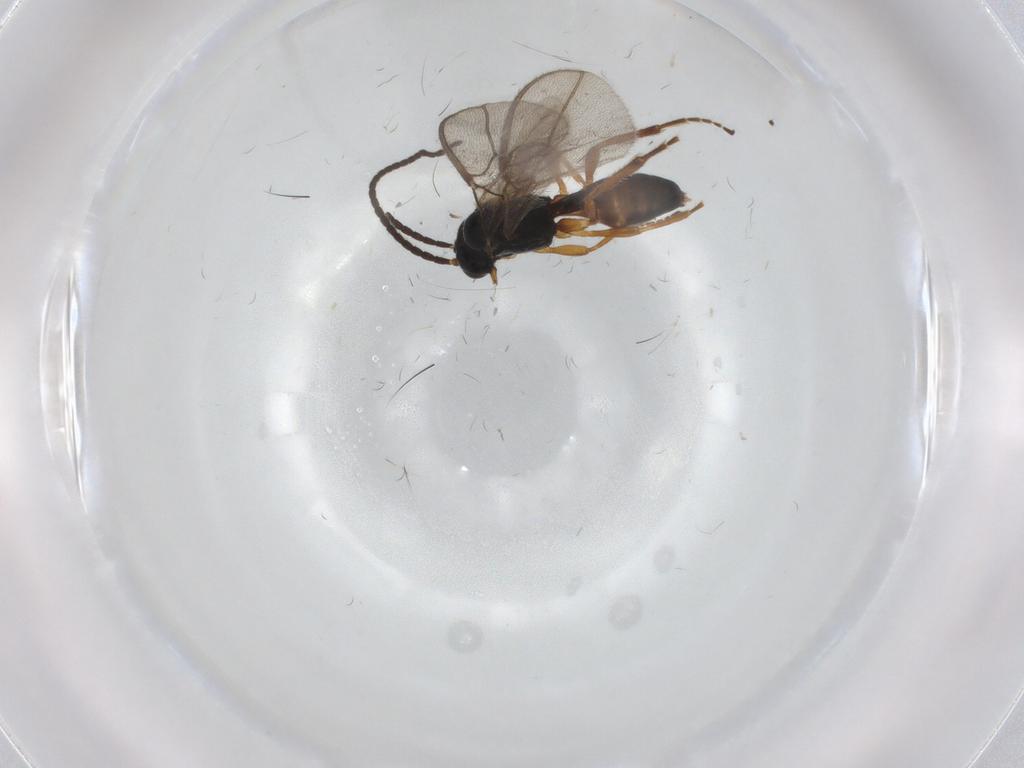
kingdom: Animalia
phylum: Arthropoda
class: Insecta
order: Hymenoptera
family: Braconidae
